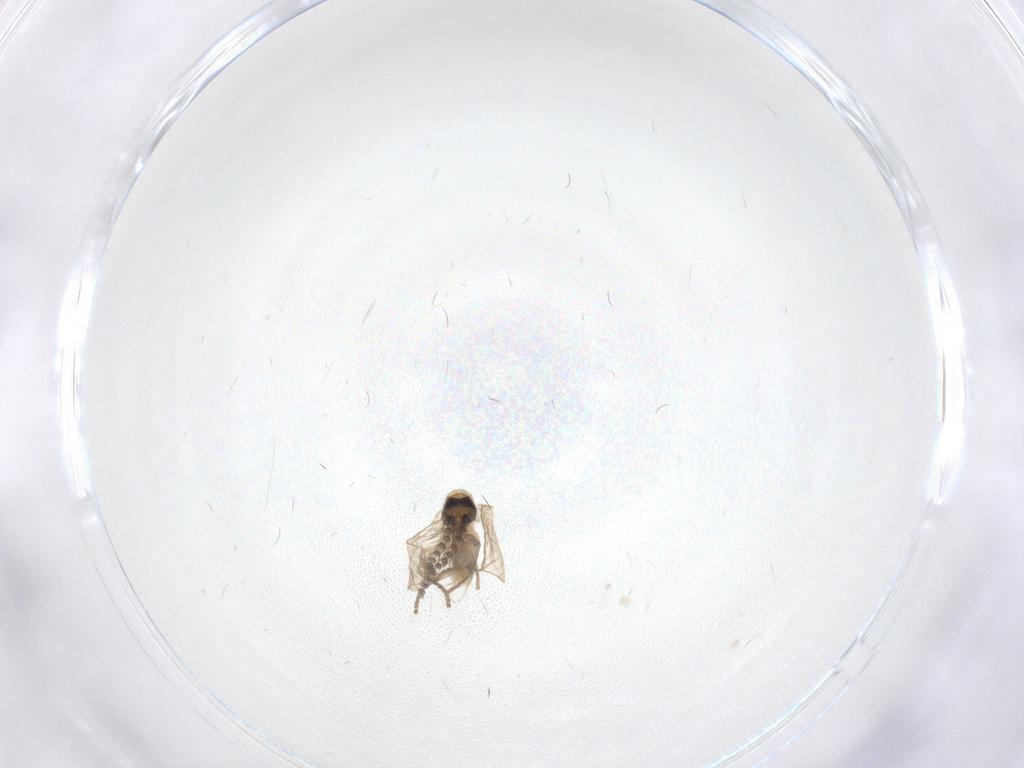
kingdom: Animalia
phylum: Arthropoda
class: Insecta
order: Diptera
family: Psychodidae
